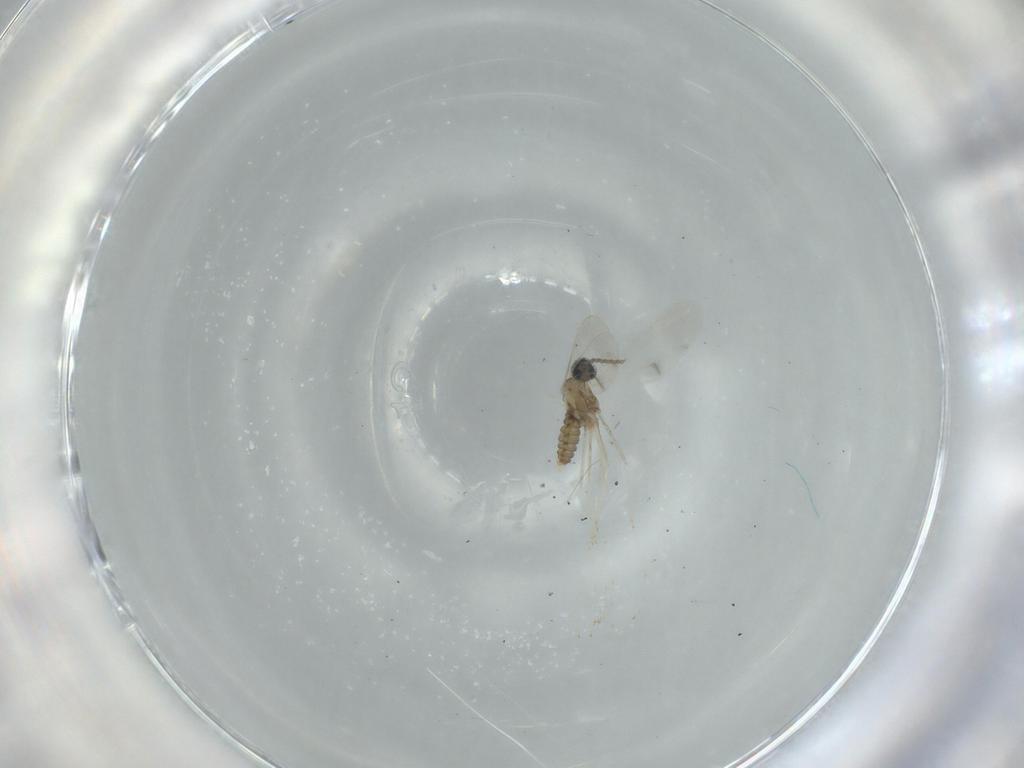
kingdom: Animalia
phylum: Arthropoda
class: Insecta
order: Diptera
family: Cecidomyiidae
